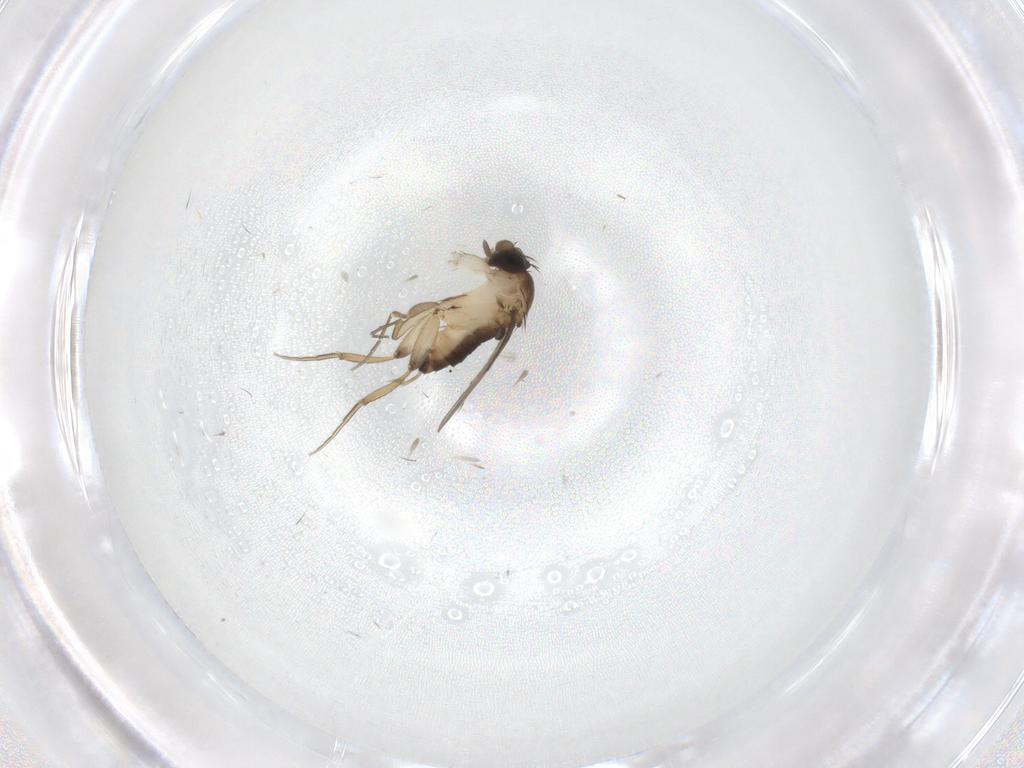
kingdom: Animalia
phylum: Arthropoda
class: Insecta
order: Diptera
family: Phoridae
